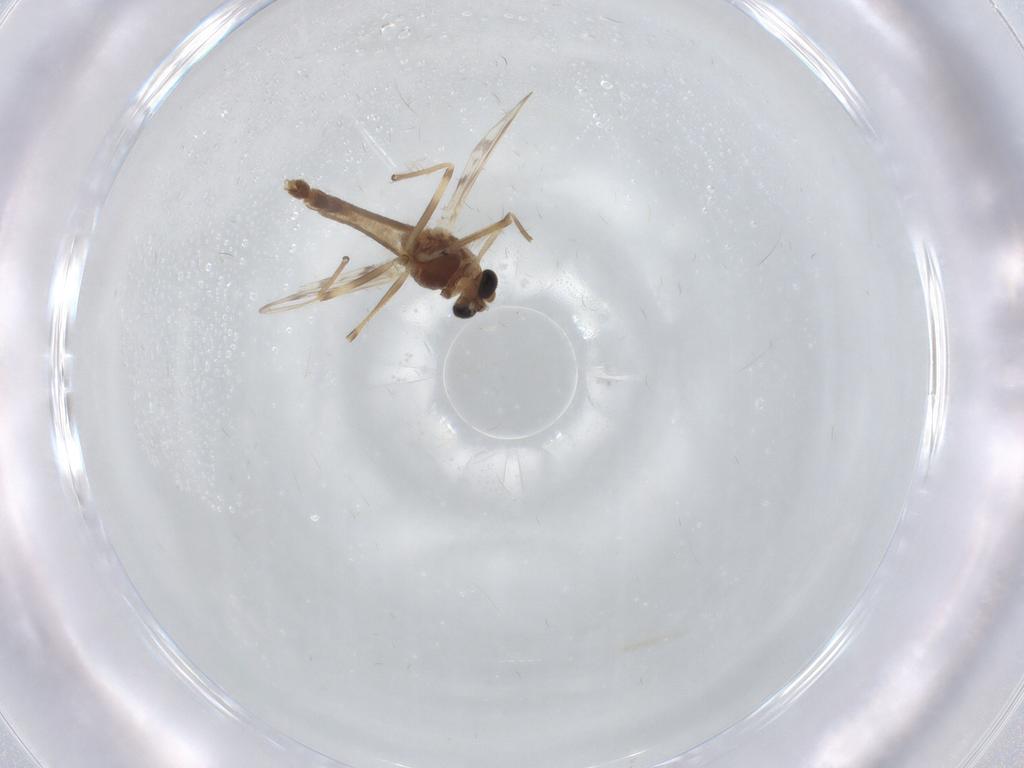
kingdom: Animalia
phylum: Arthropoda
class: Insecta
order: Diptera
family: Chironomidae
